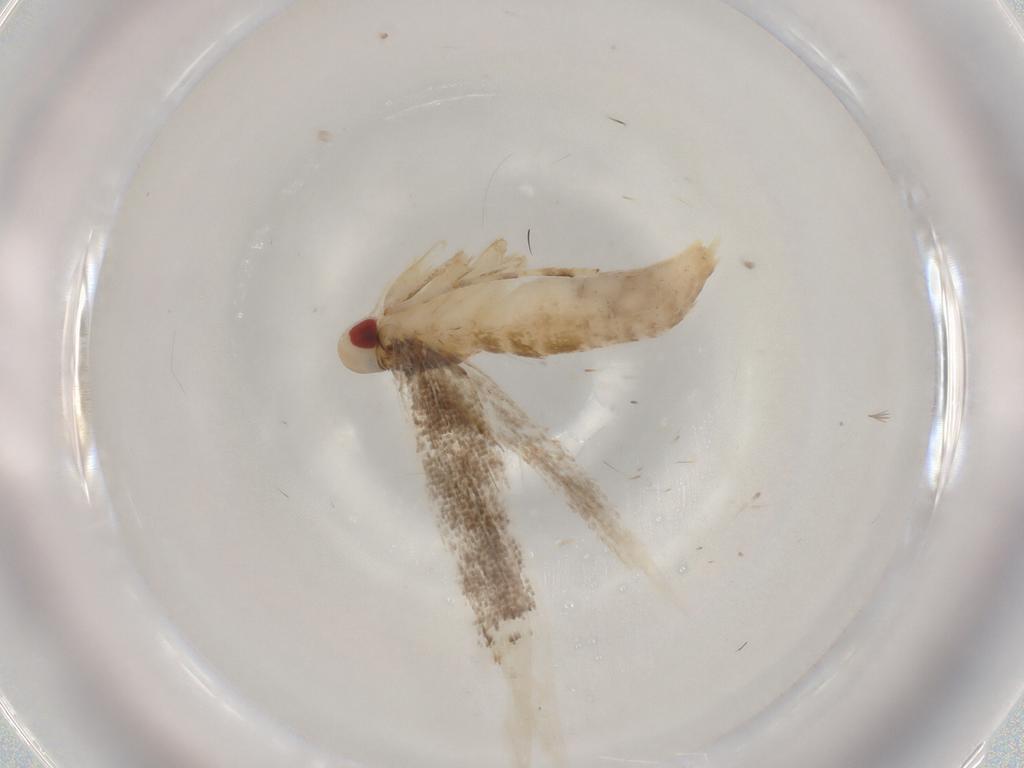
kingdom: Animalia
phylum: Arthropoda
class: Insecta
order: Lepidoptera
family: Cosmopterigidae
